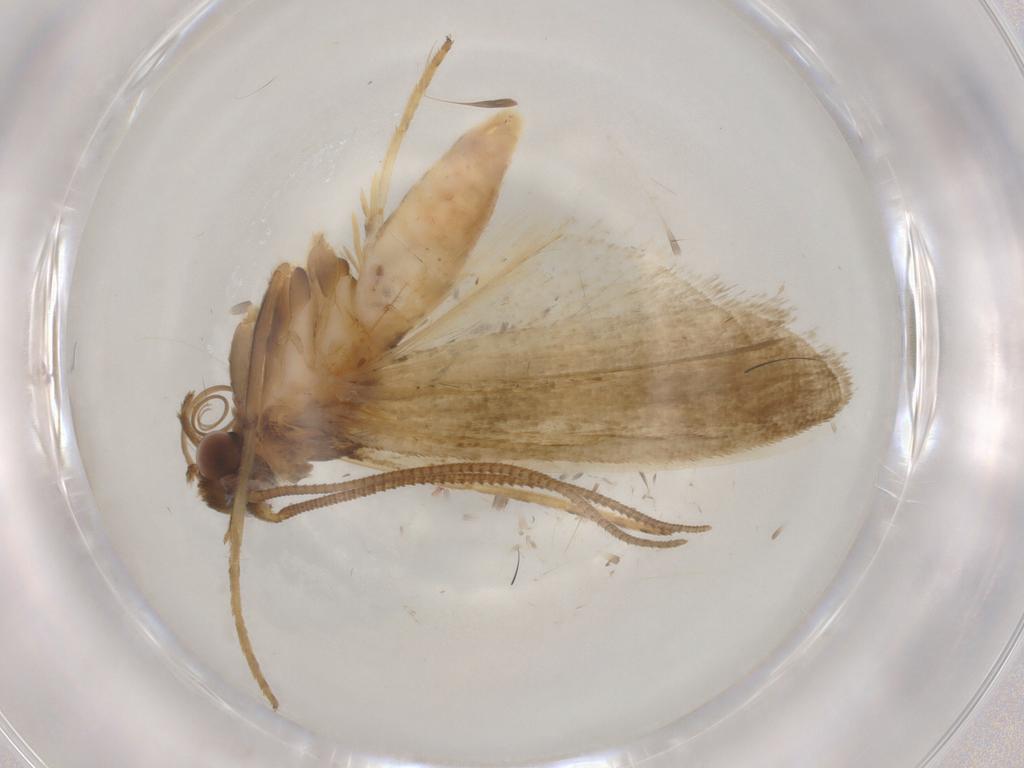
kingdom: Animalia
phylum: Arthropoda
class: Insecta
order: Lepidoptera
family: Noctuidae
